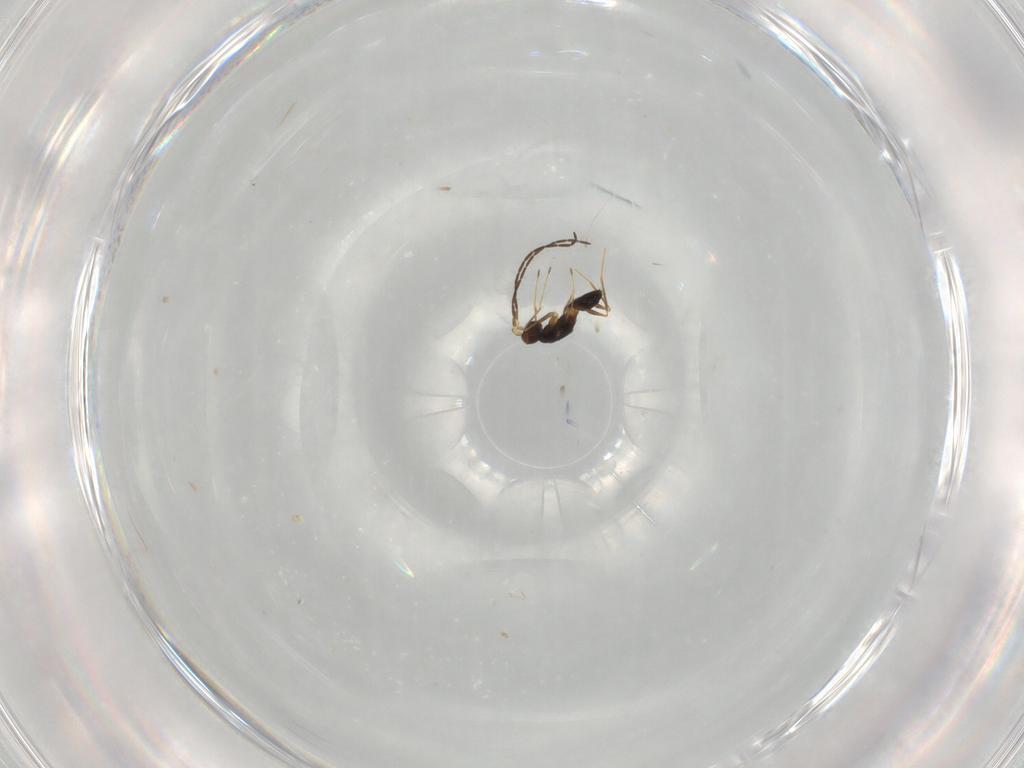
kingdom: Animalia
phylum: Arthropoda
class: Insecta
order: Hymenoptera
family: Mymaridae
